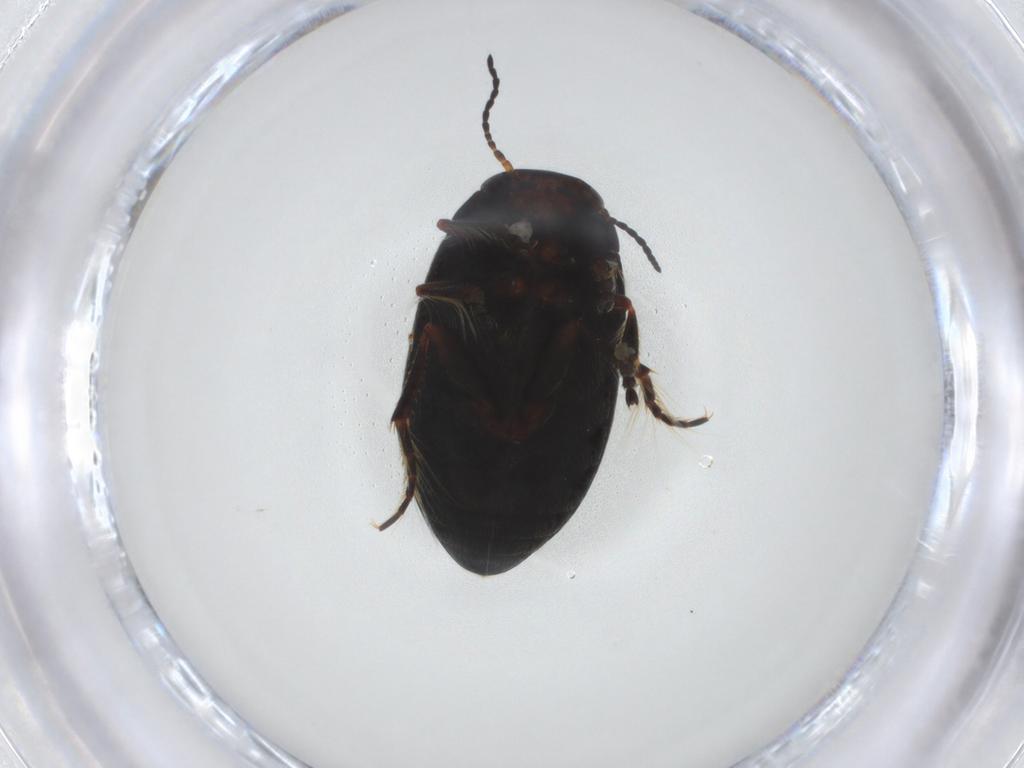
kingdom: Animalia
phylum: Arthropoda
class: Insecta
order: Coleoptera
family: Dytiscidae
